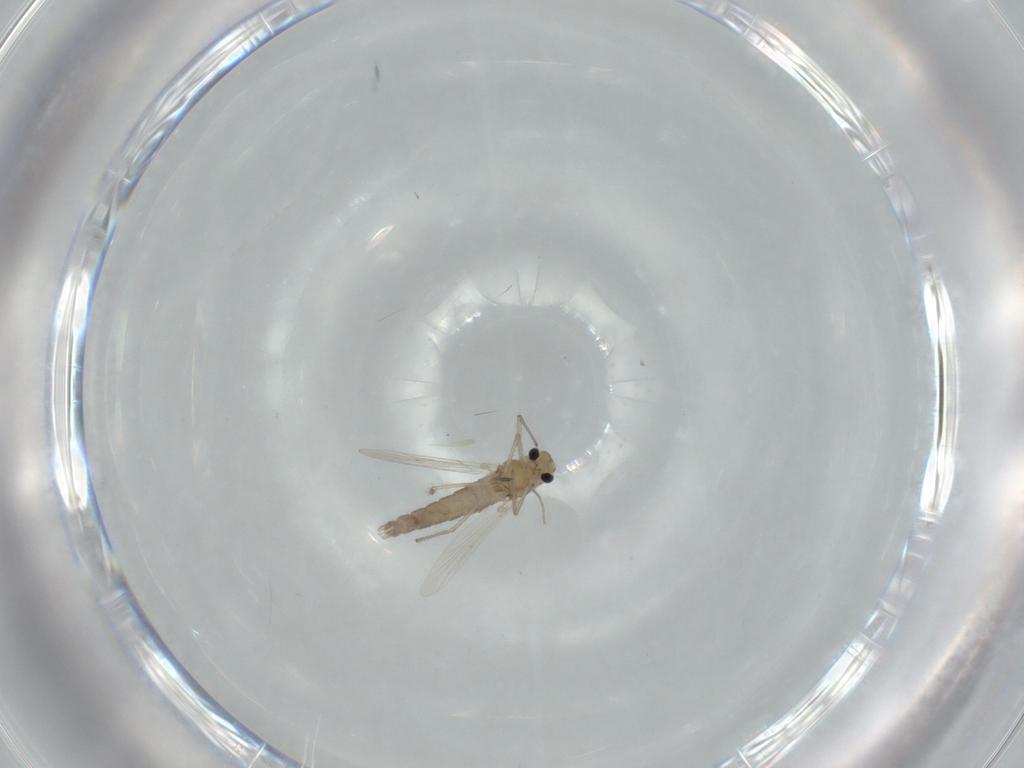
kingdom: Animalia
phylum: Arthropoda
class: Insecta
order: Diptera
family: Chironomidae
